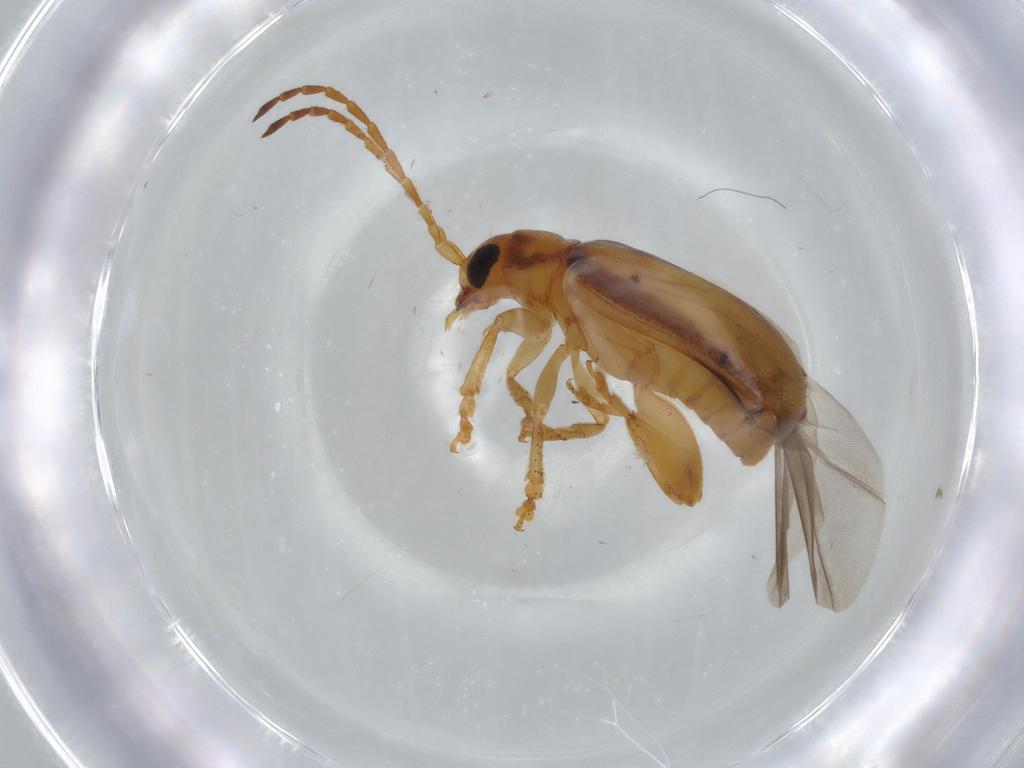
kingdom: Animalia
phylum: Arthropoda
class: Insecta
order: Coleoptera
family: Chrysomelidae
